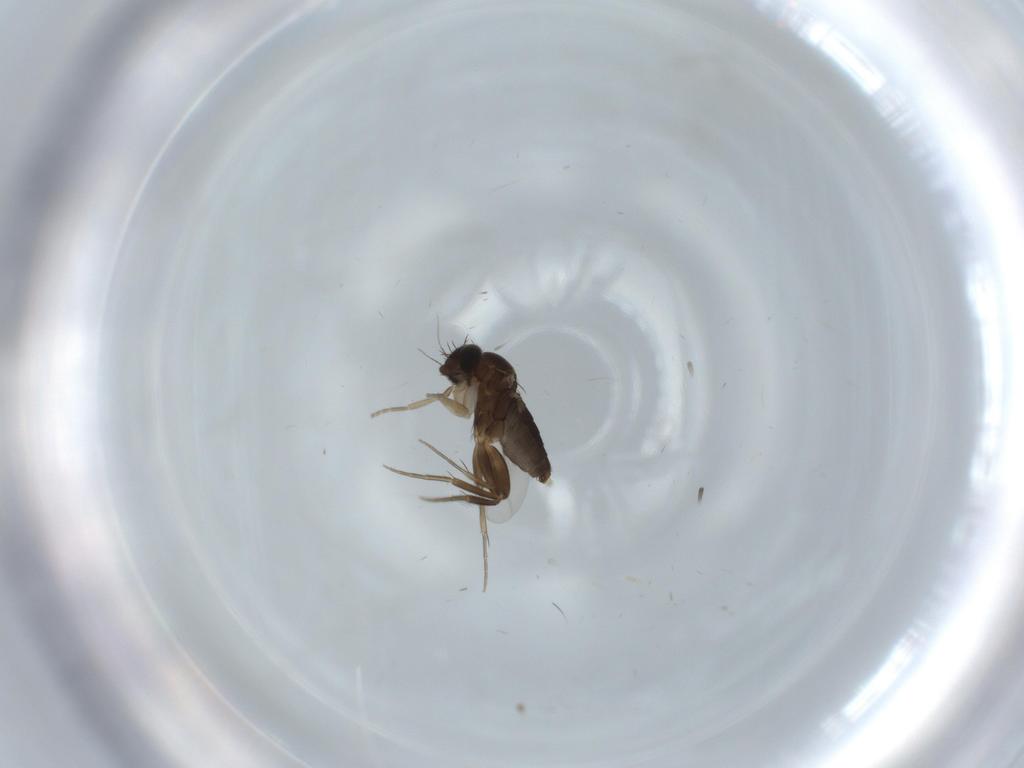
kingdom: Animalia
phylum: Arthropoda
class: Insecta
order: Diptera
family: Phoridae
